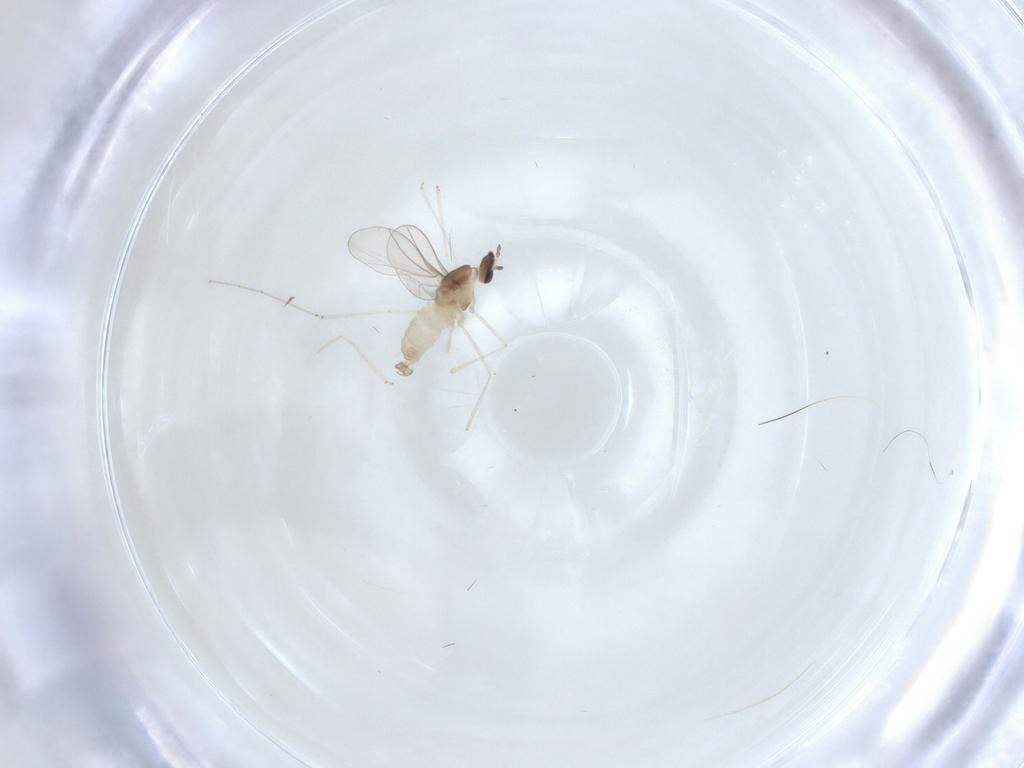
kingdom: Animalia
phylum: Arthropoda
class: Insecta
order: Diptera
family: Cecidomyiidae
